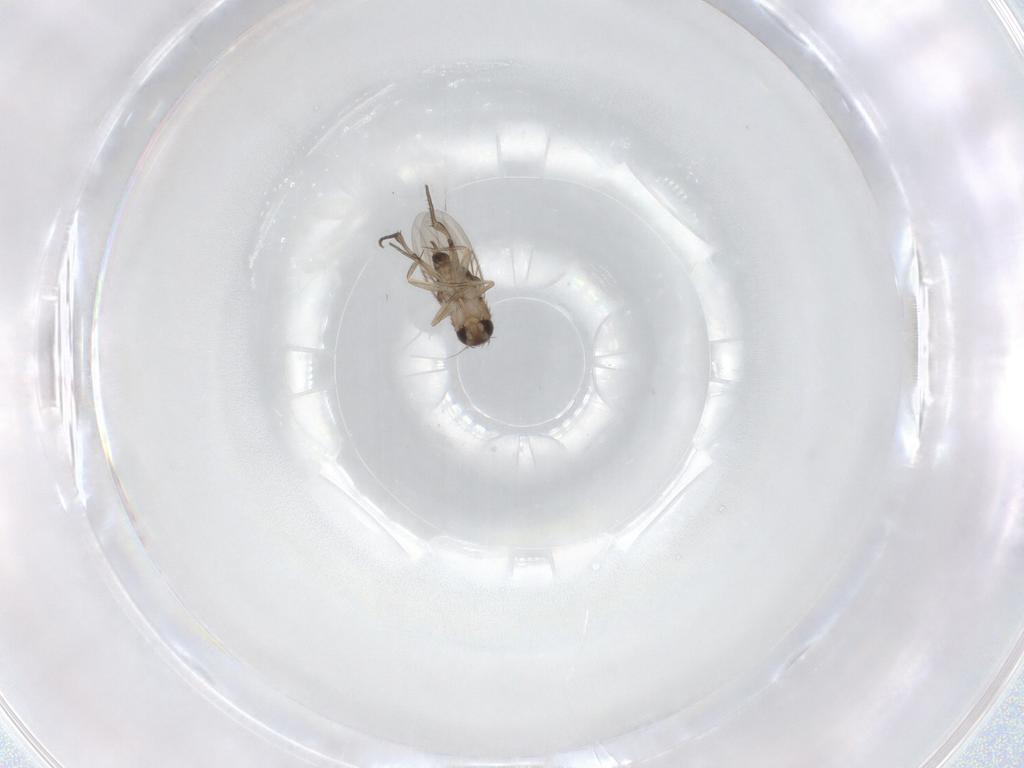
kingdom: Animalia
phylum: Arthropoda
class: Insecta
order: Diptera
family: Phoridae
